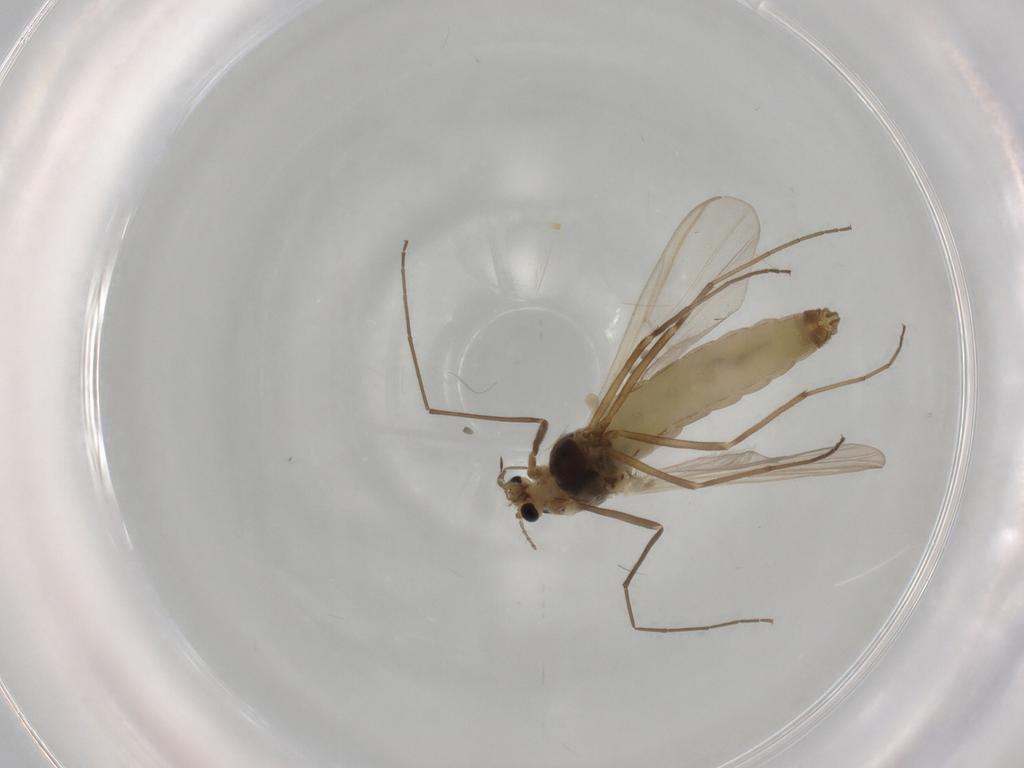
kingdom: Animalia
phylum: Arthropoda
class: Insecta
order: Diptera
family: Chironomidae
